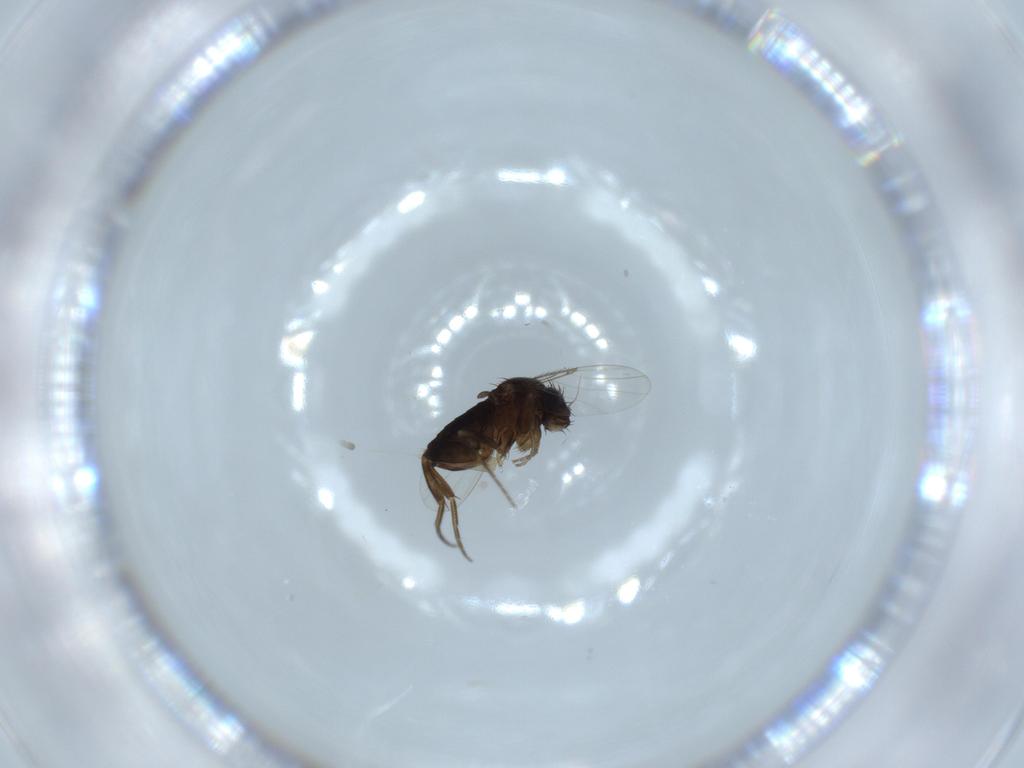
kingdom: Animalia
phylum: Arthropoda
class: Insecta
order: Diptera
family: Phoridae
